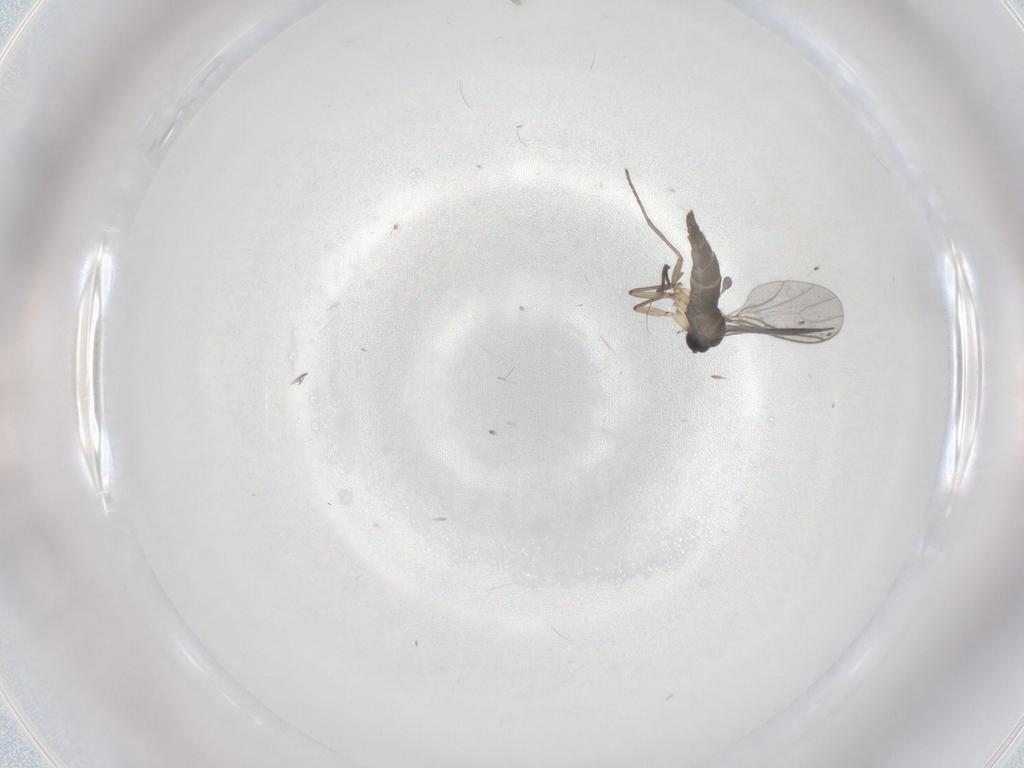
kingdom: Animalia
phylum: Arthropoda
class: Insecta
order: Diptera
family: Sciaridae
